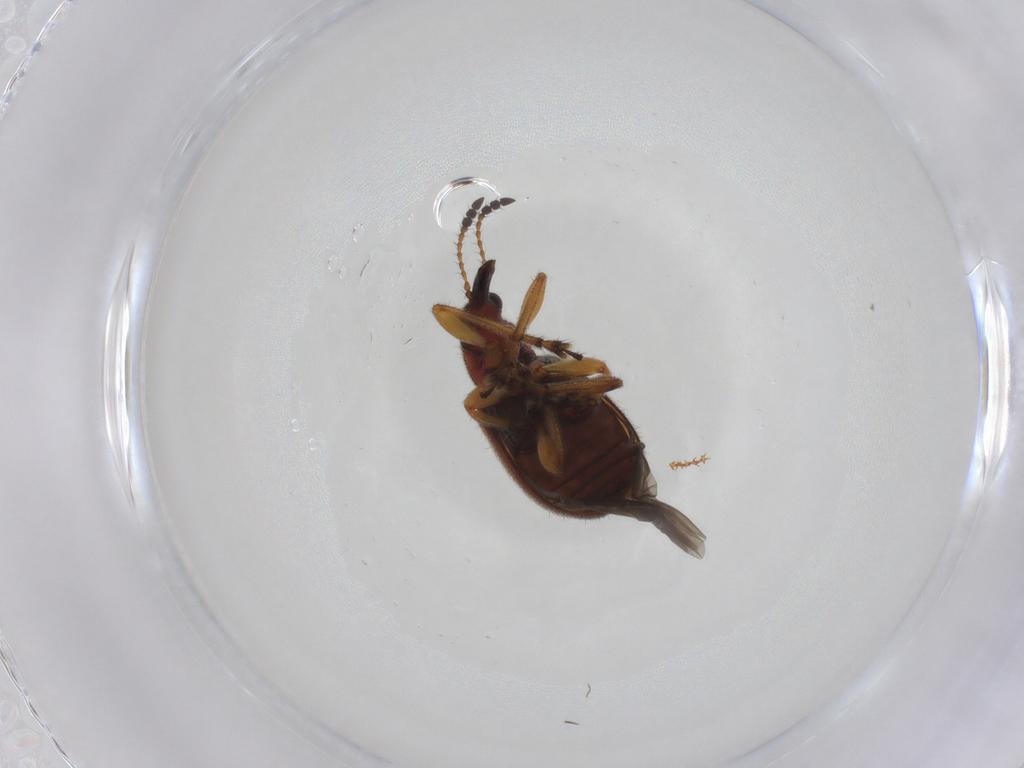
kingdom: Animalia
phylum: Arthropoda
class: Insecta
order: Coleoptera
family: Attelabidae
